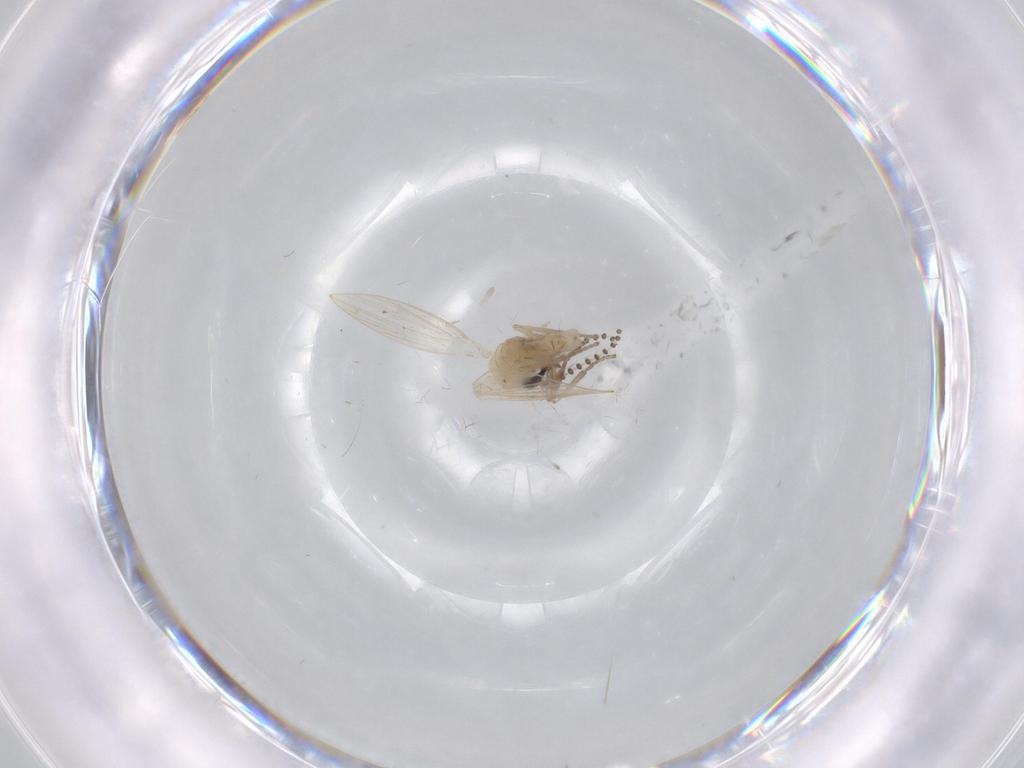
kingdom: Animalia
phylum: Arthropoda
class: Insecta
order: Diptera
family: Psychodidae
